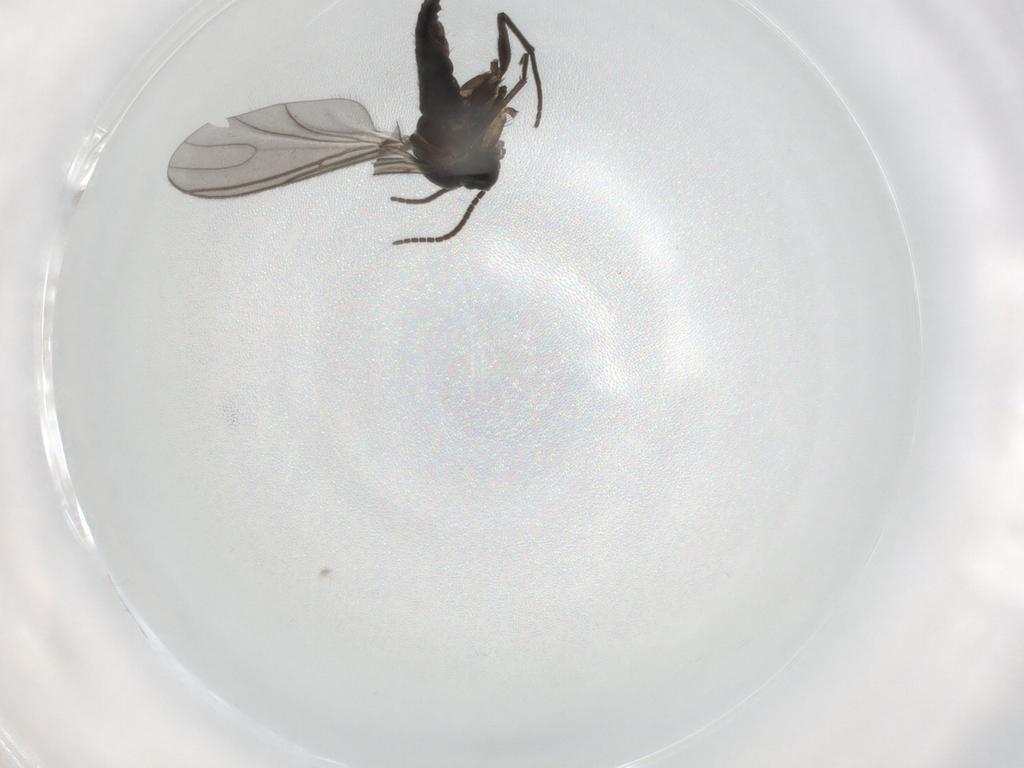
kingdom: Animalia
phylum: Arthropoda
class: Insecta
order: Diptera
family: Sciaridae
